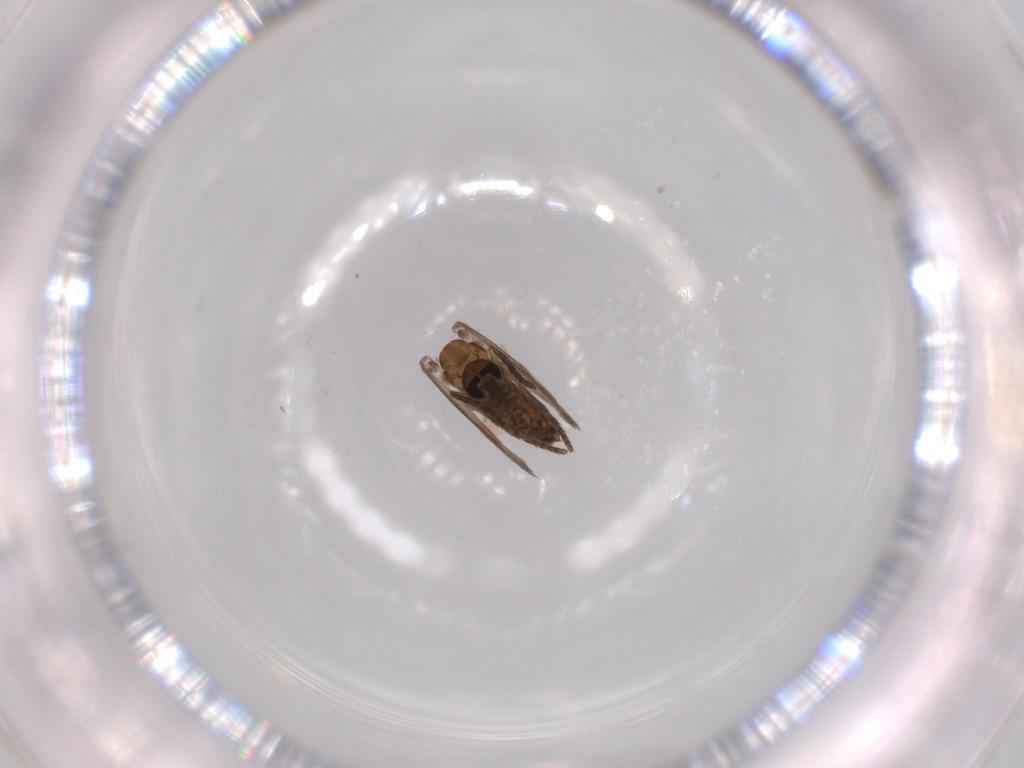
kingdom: Animalia
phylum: Arthropoda
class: Insecta
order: Diptera
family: Psychodidae
